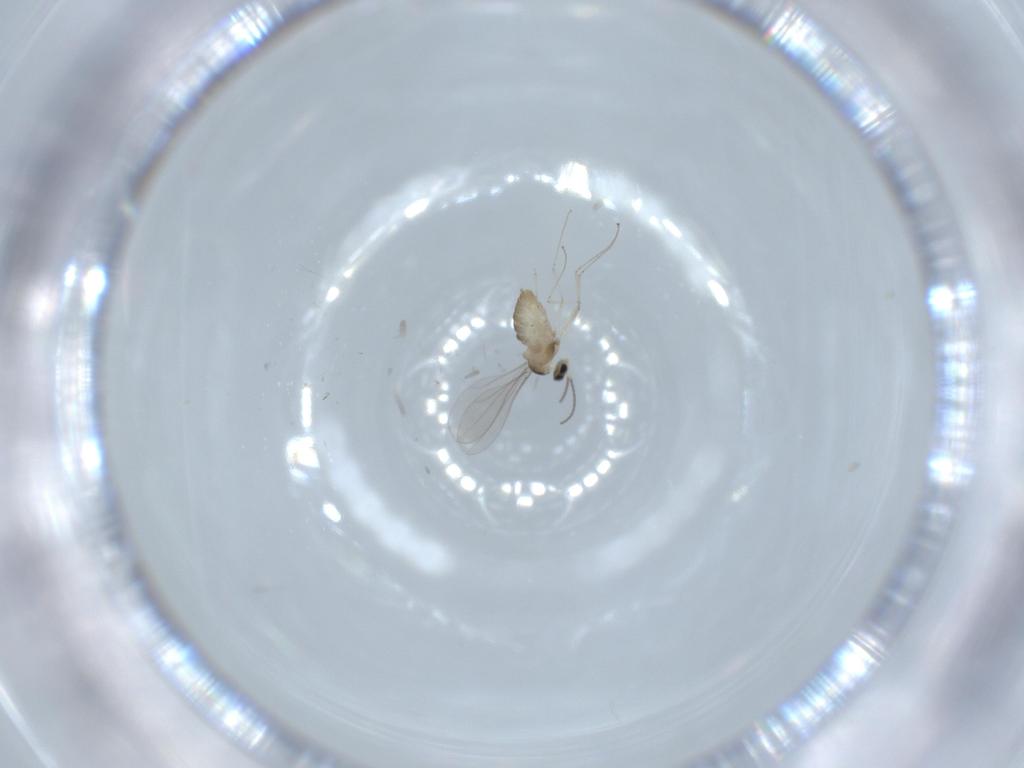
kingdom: Animalia
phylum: Arthropoda
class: Insecta
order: Diptera
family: Cecidomyiidae
